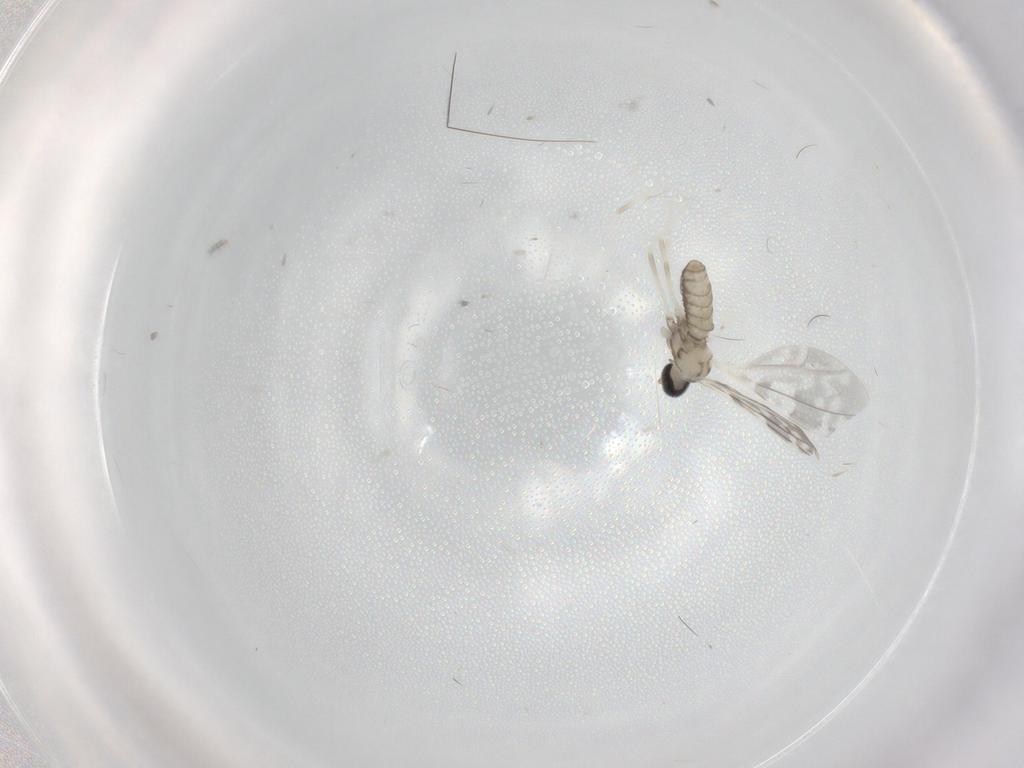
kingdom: Animalia
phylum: Arthropoda
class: Insecta
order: Diptera
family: Cecidomyiidae
